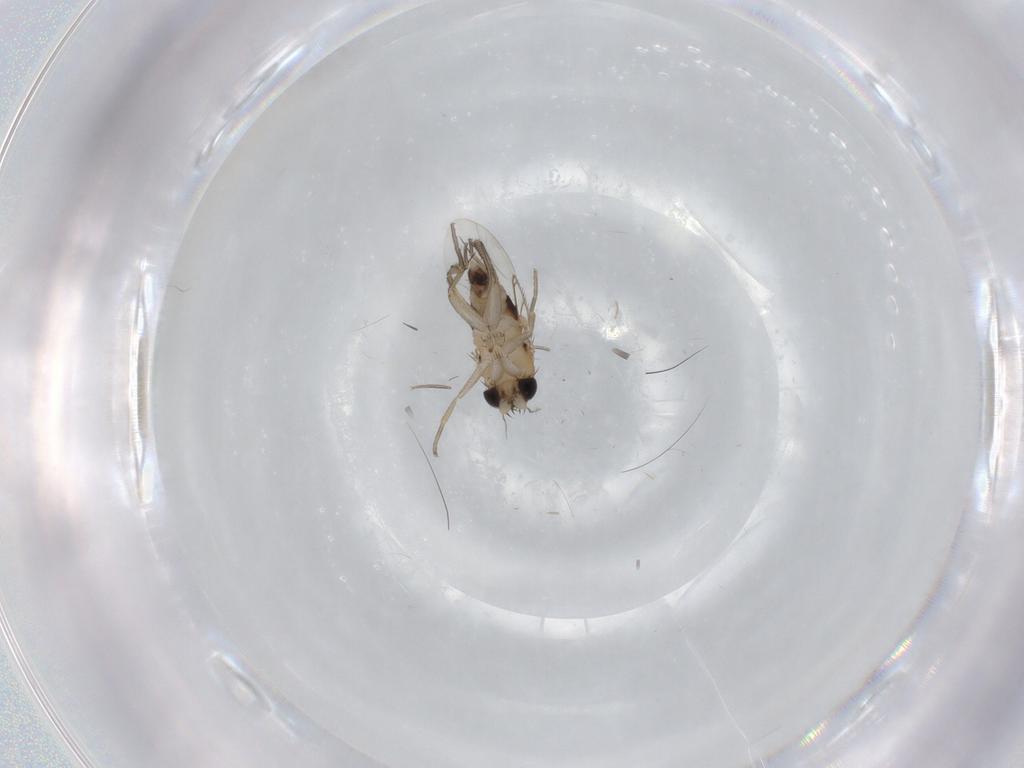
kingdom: Animalia
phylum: Arthropoda
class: Insecta
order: Diptera
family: Phoridae
